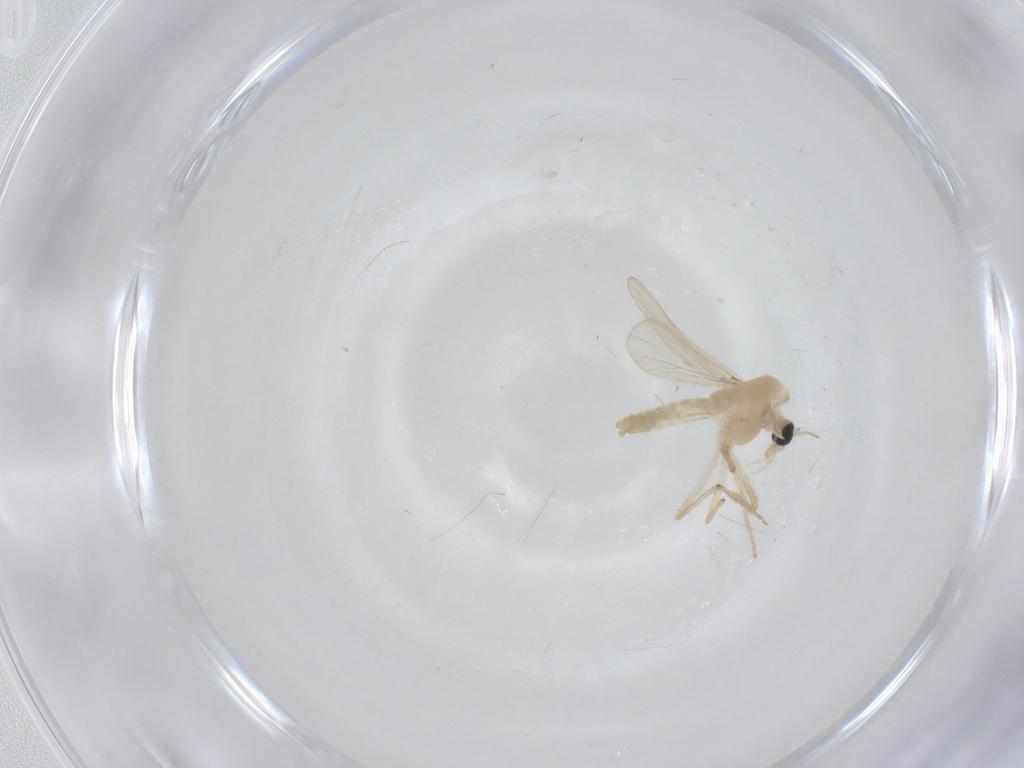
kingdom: Animalia
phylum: Arthropoda
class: Insecta
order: Diptera
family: Chironomidae
